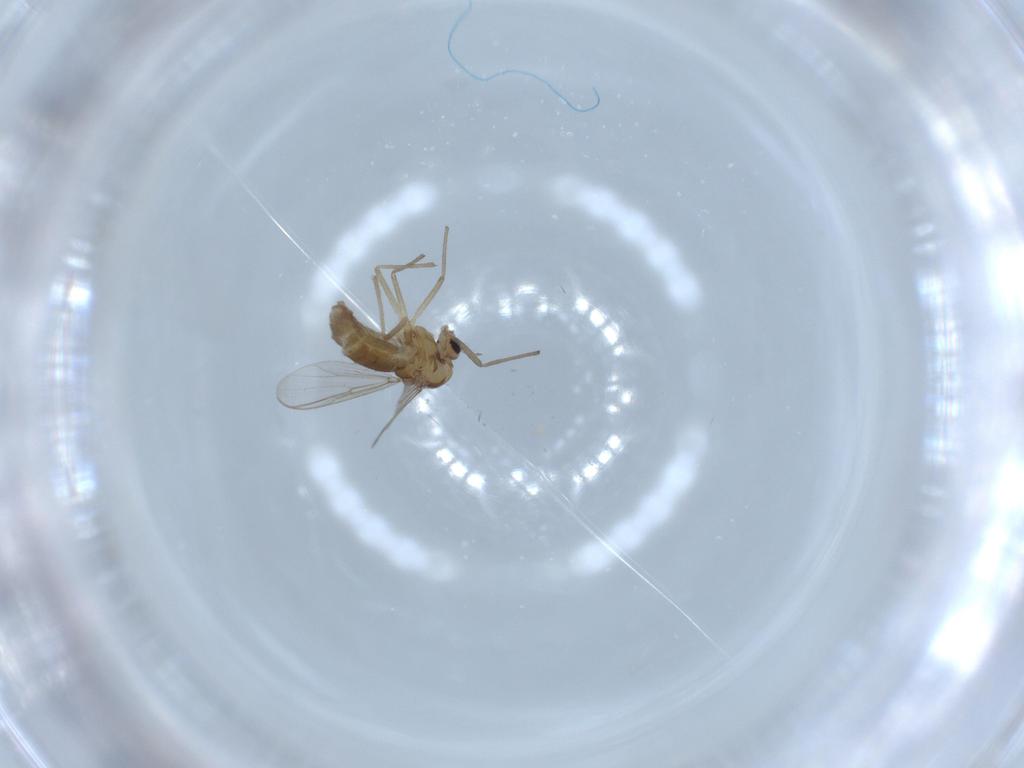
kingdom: Animalia
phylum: Arthropoda
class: Insecta
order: Diptera
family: Chironomidae
